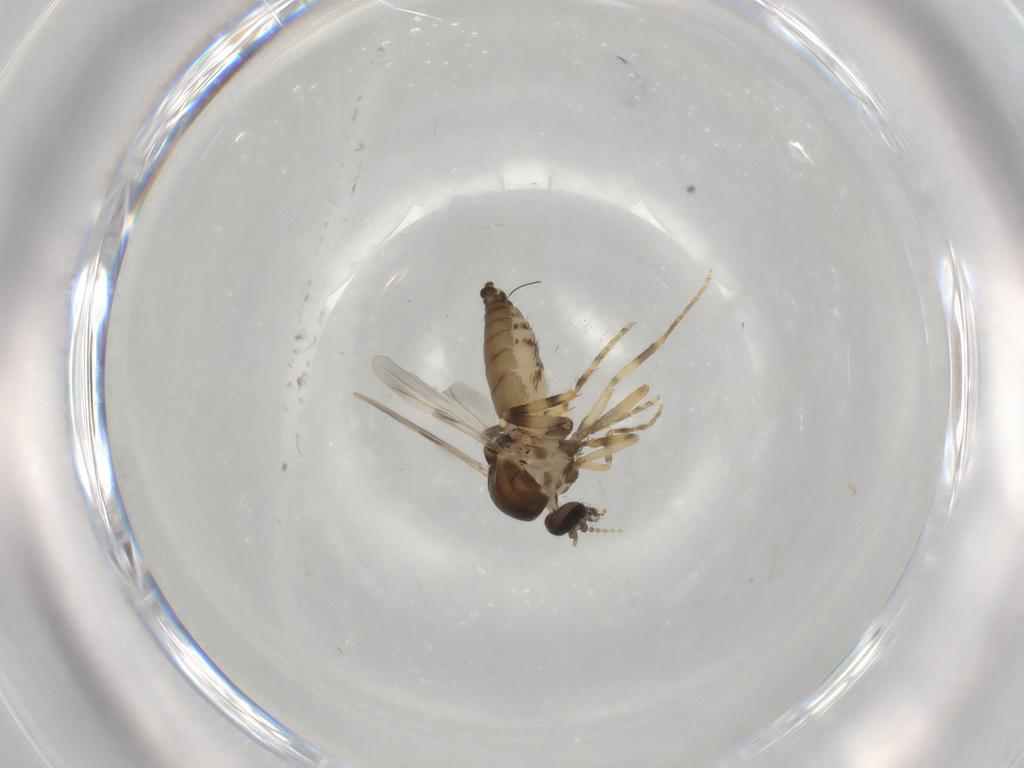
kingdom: Animalia
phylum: Arthropoda
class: Insecta
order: Diptera
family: Ceratopogonidae
